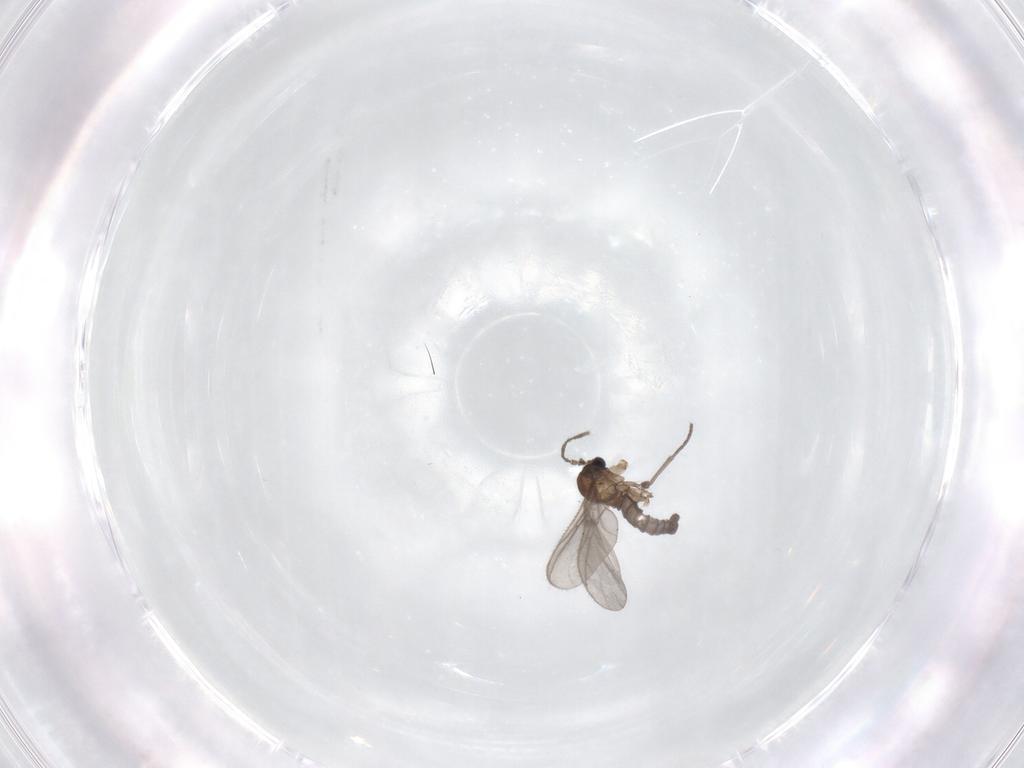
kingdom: Animalia
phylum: Arthropoda
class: Insecta
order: Diptera
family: Sciaridae
